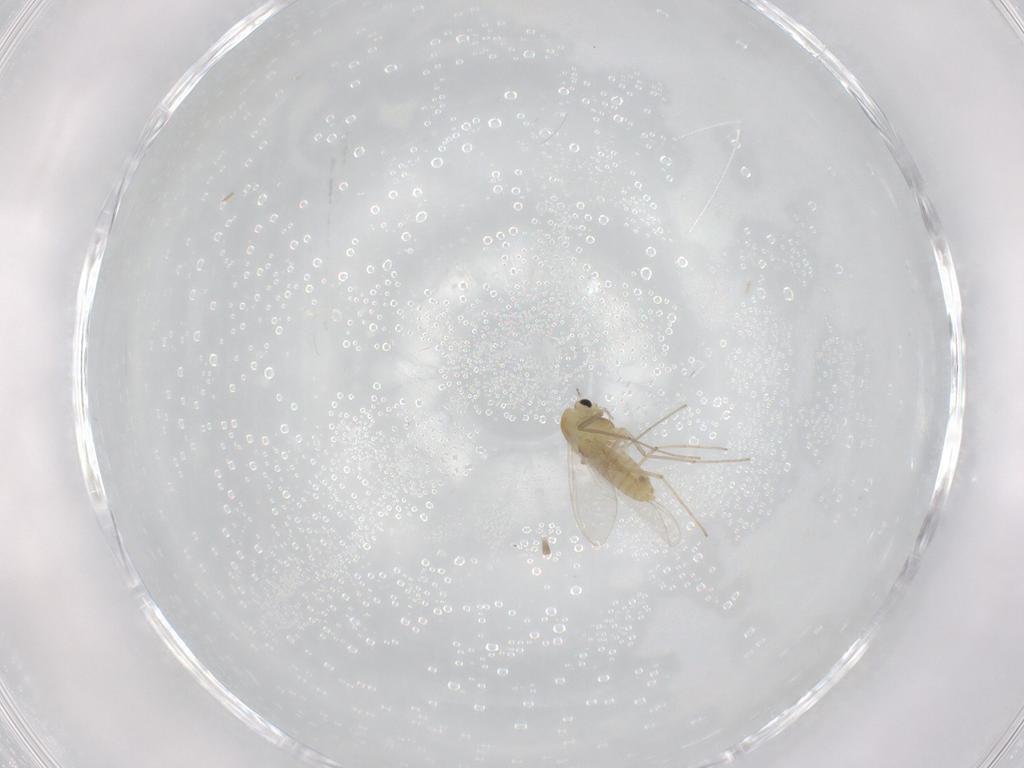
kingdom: Animalia
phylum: Arthropoda
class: Insecta
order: Diptera
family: Chironomidae
